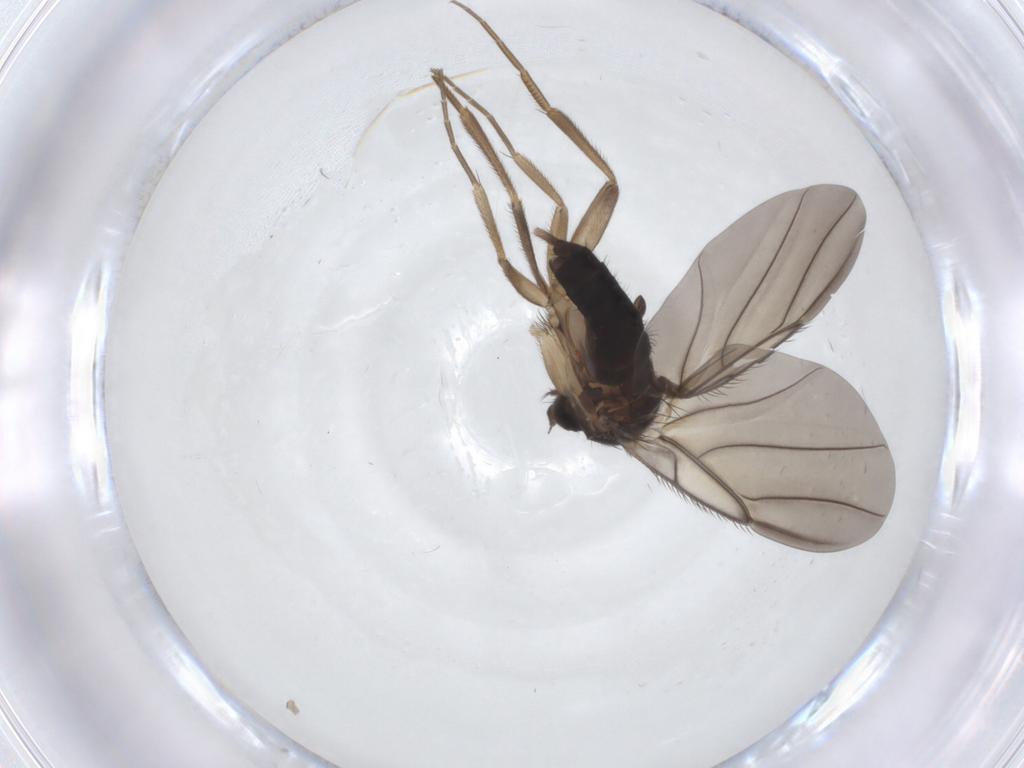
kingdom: Animalia
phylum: Arthropoda
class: Insecta
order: Diptera
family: Phoridae
